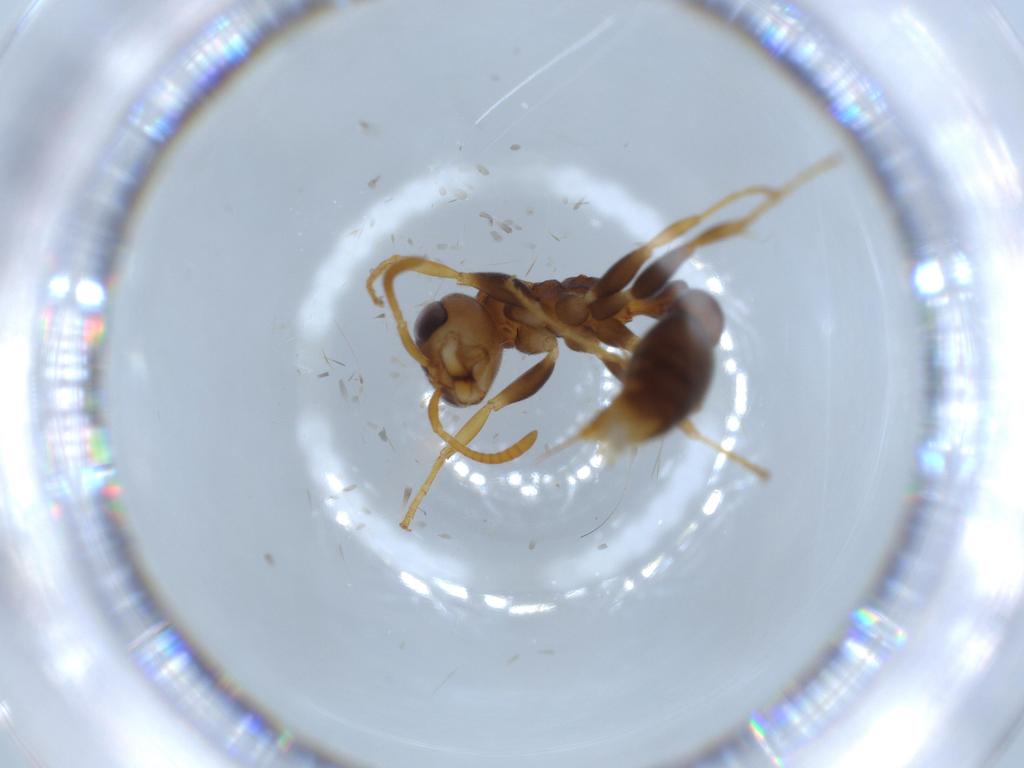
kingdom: Animalia
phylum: Arthropoda
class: Insecta
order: Hymenoptera
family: Formicidae
